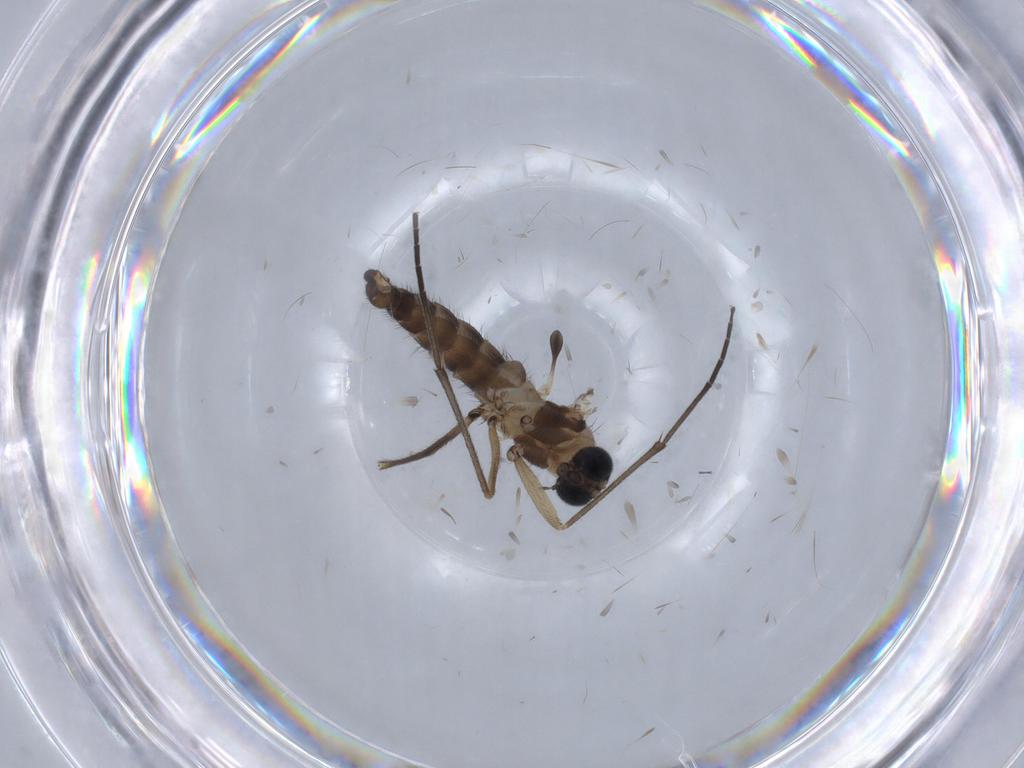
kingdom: Animalia
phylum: Arthropoda
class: Insecta
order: Diptera
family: Sciaridae
